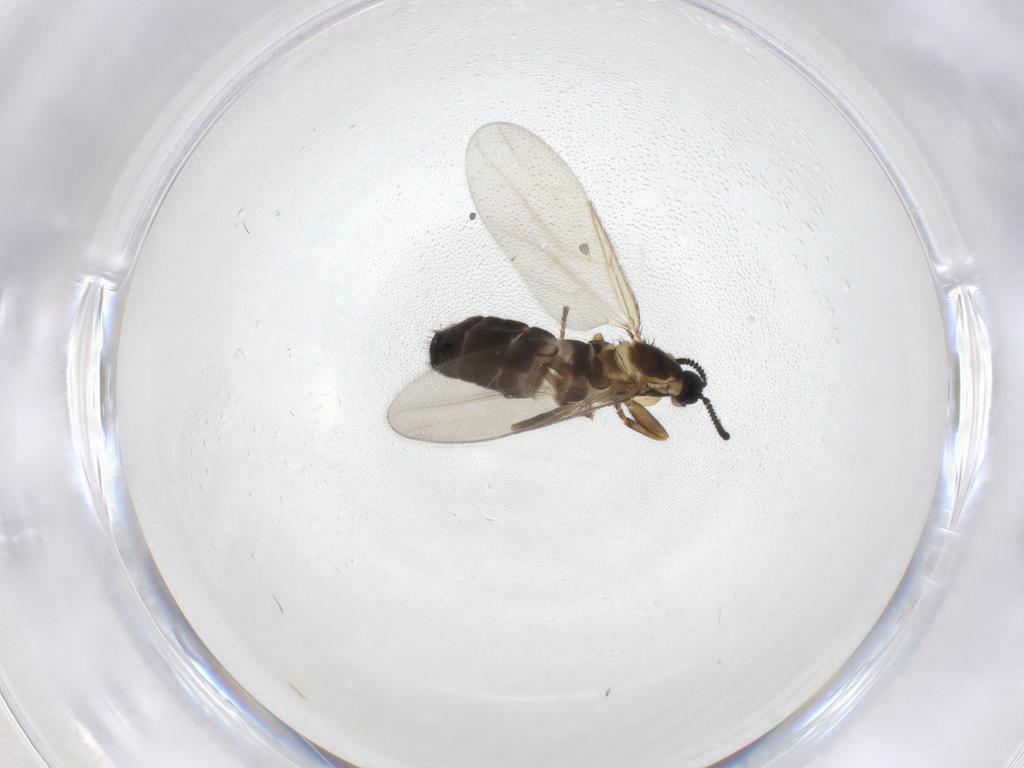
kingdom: Animalia
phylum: Arthropoda
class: Insecta
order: Diptera
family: Scatopsidae
